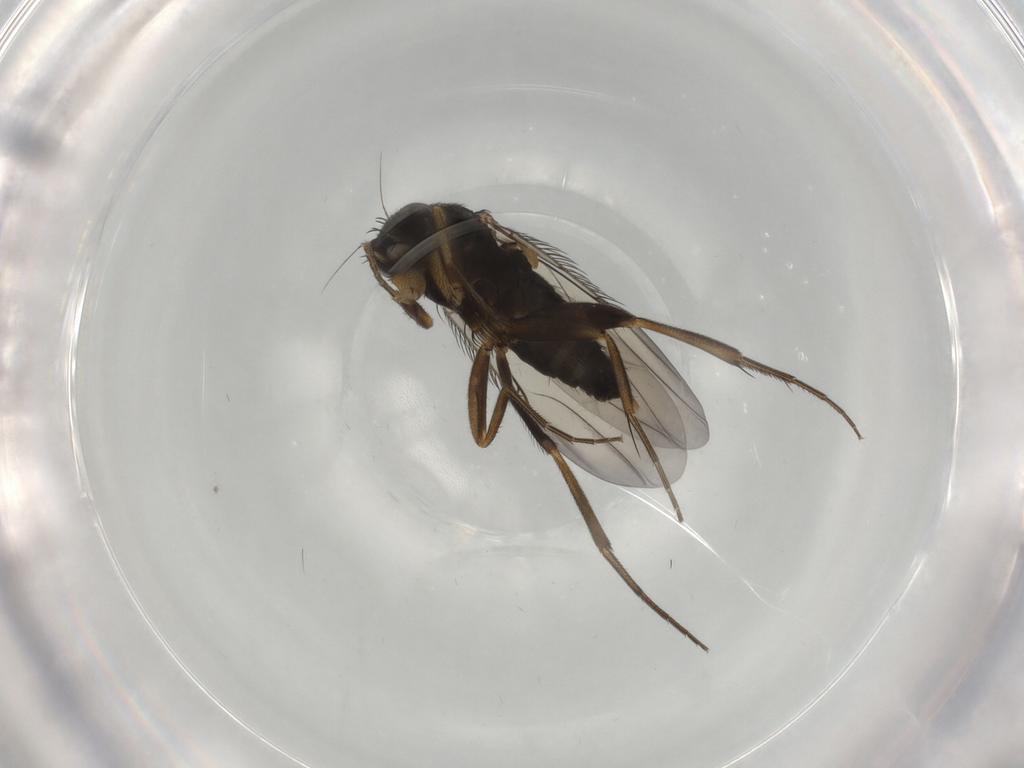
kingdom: Animalia
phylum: Arthropoda
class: Insecta
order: Diptera
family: Phoridae
